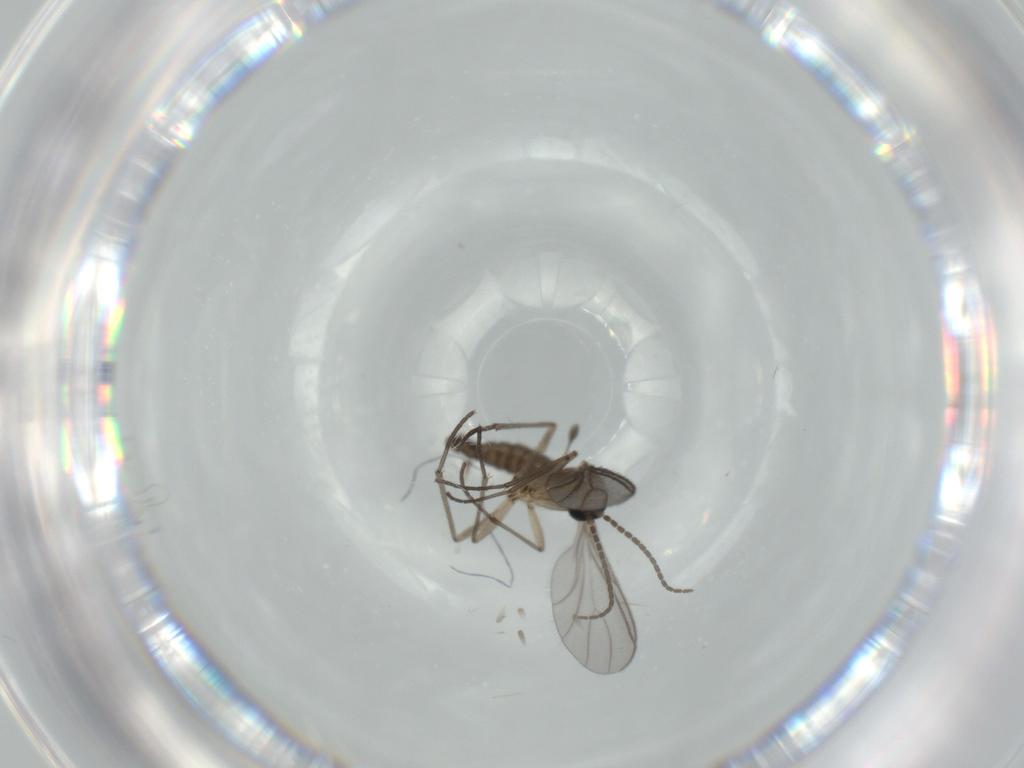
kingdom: Animalia
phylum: Arthropoda
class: Insecta
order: Diptera
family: Sciaridae
